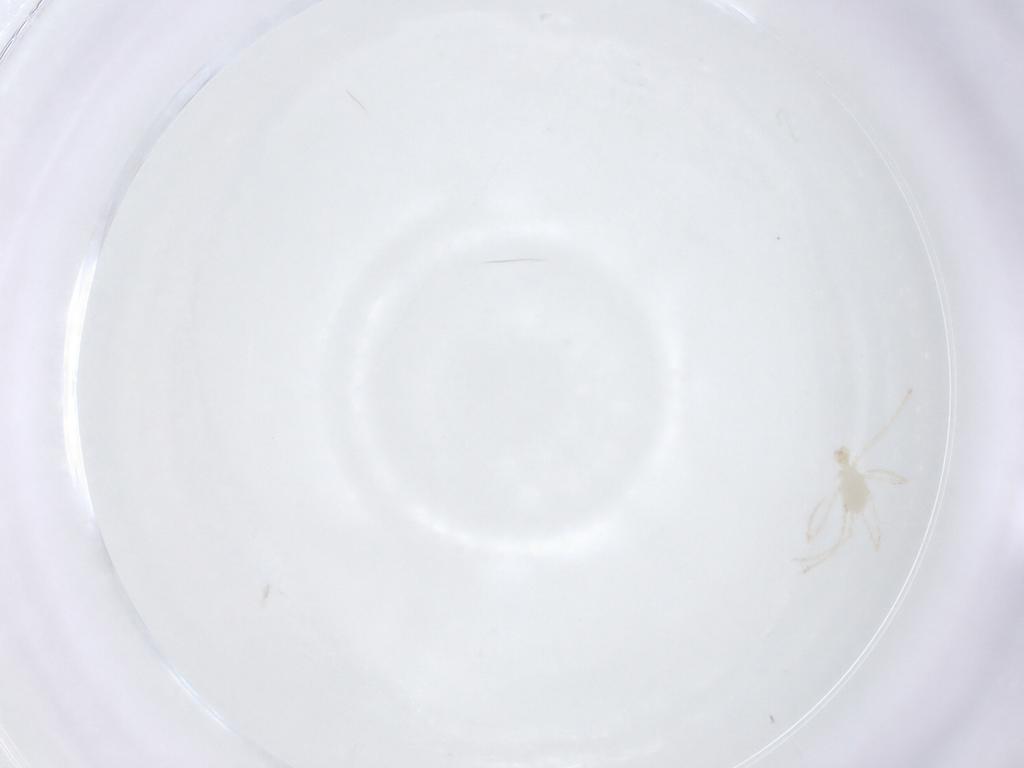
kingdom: Animalia
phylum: Arthropoda
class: Arachnida
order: Trombidiformes
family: Erythraeidae
